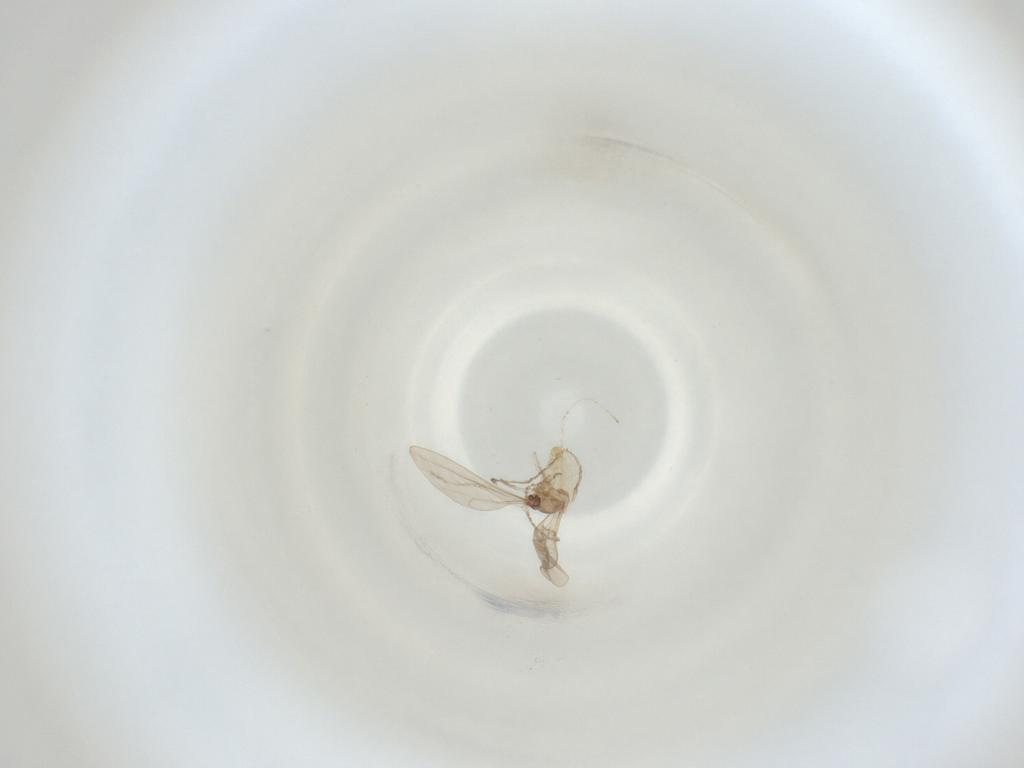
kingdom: Animalia
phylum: Arthropoda
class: Insecta
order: Diptera
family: Cecidomyiidae
